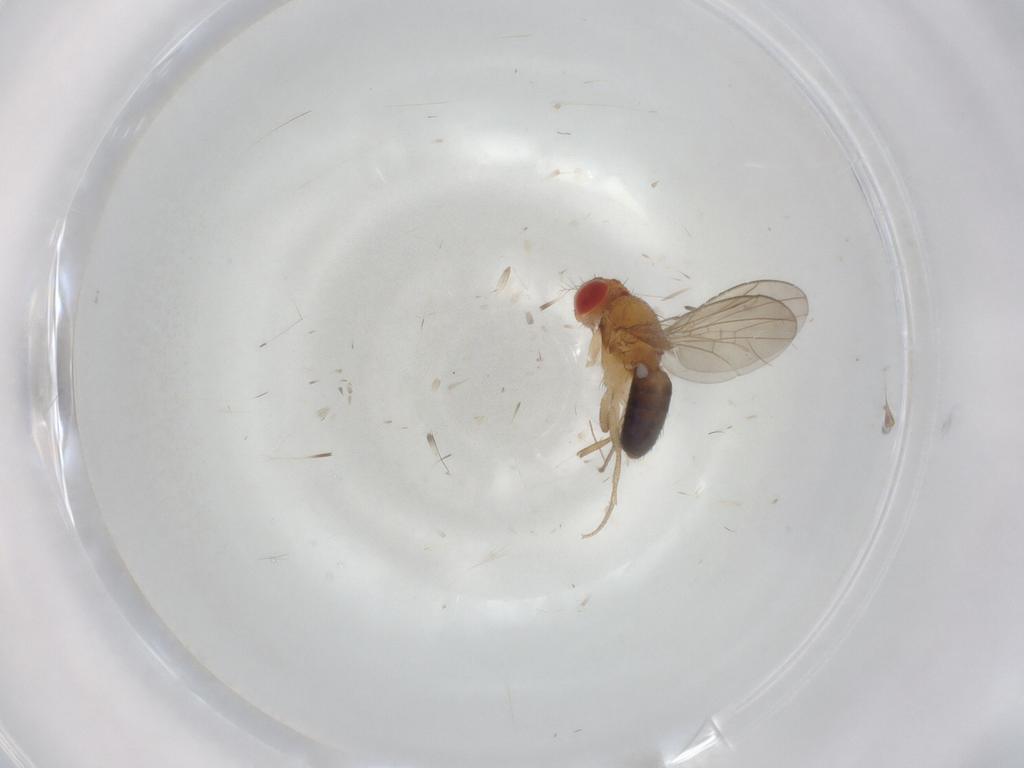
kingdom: Animalia
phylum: Arthropoda
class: Insecta
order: Diptera
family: Drosophilidae
